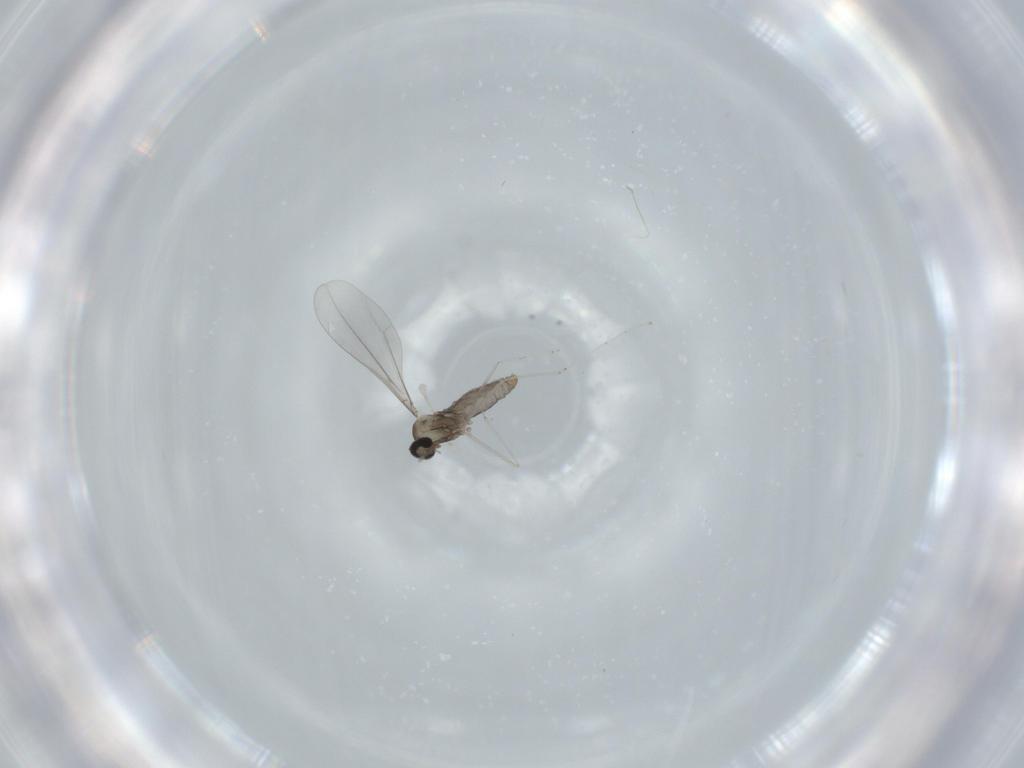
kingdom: Animalia
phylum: Arthropoda
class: Insecta
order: Diptera
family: Cecidomyiidae
